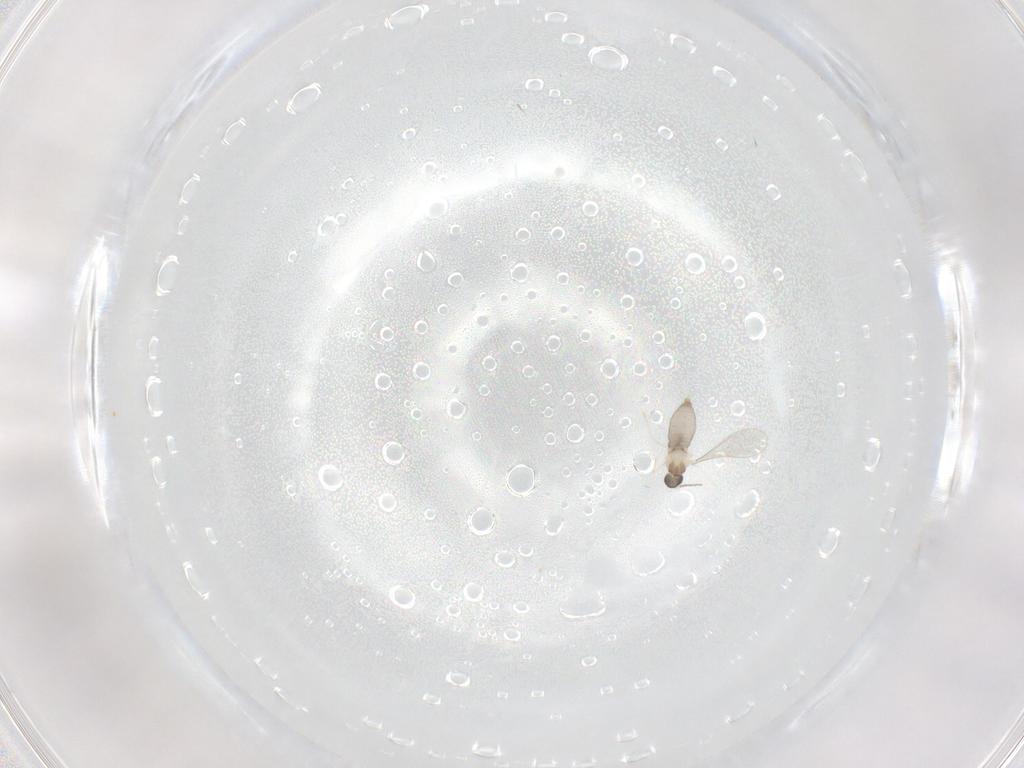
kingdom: Animalia
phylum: Arthropoda
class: Insecta
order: Diptera
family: Cecidomyiidae
